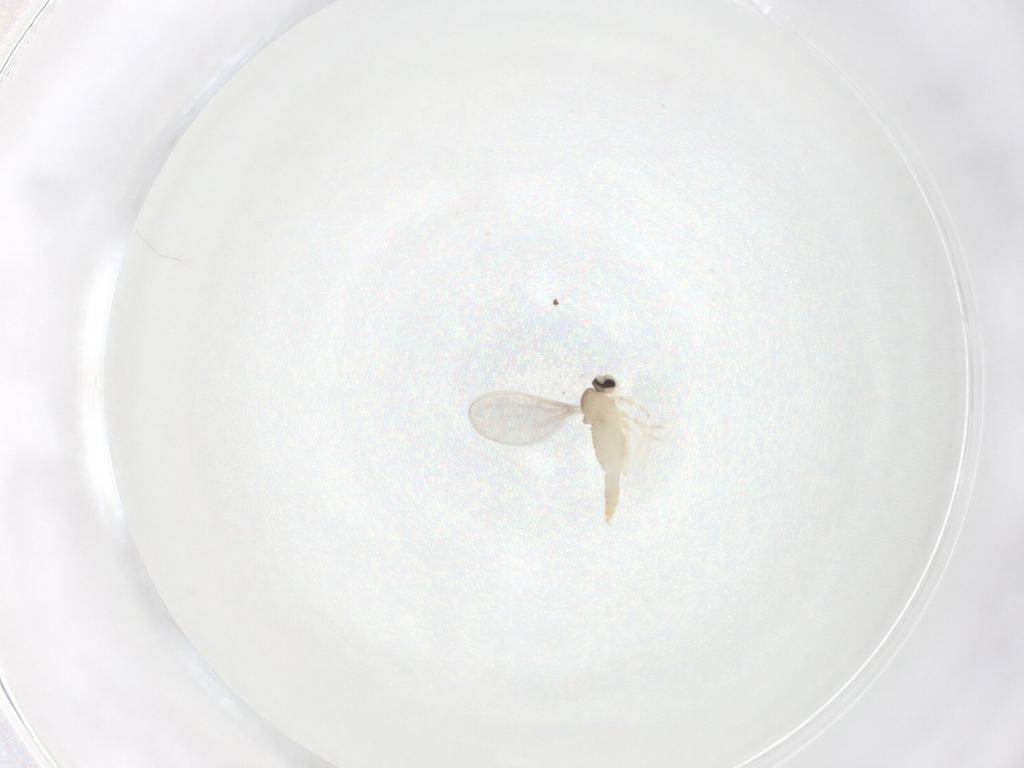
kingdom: Animalia
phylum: Arthropoda
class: Insecta
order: Diptera
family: Cecidomyiidae
